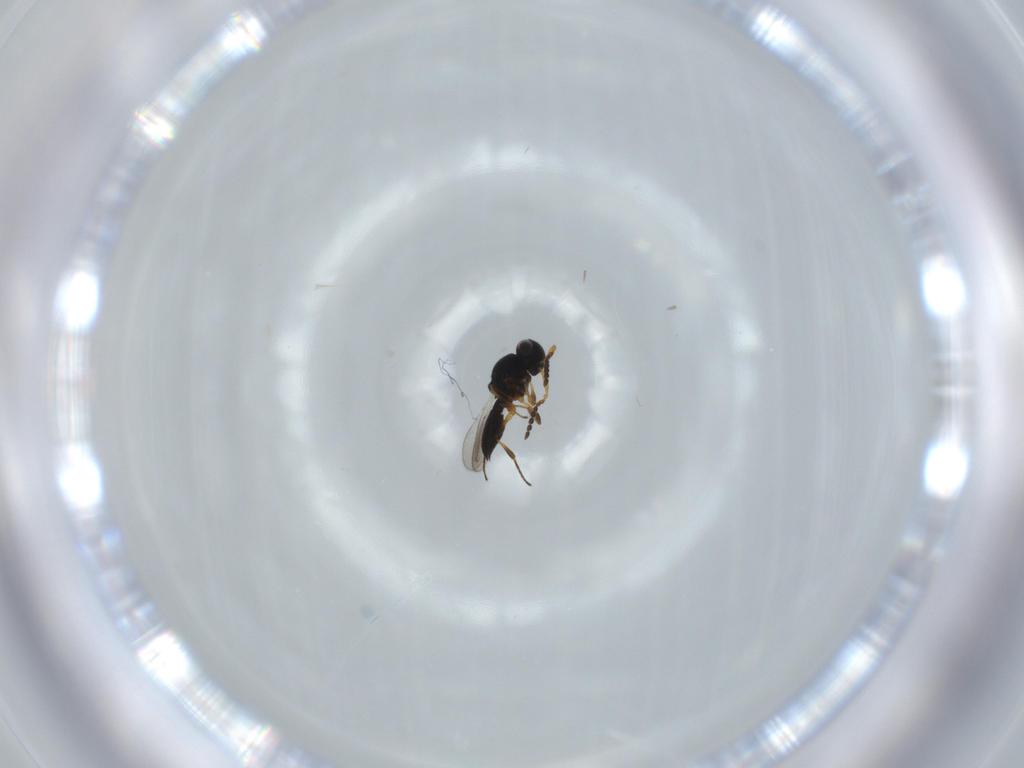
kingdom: Animalia
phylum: Arthropoda
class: Insecta
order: Hymenoptera
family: Platygastridae
